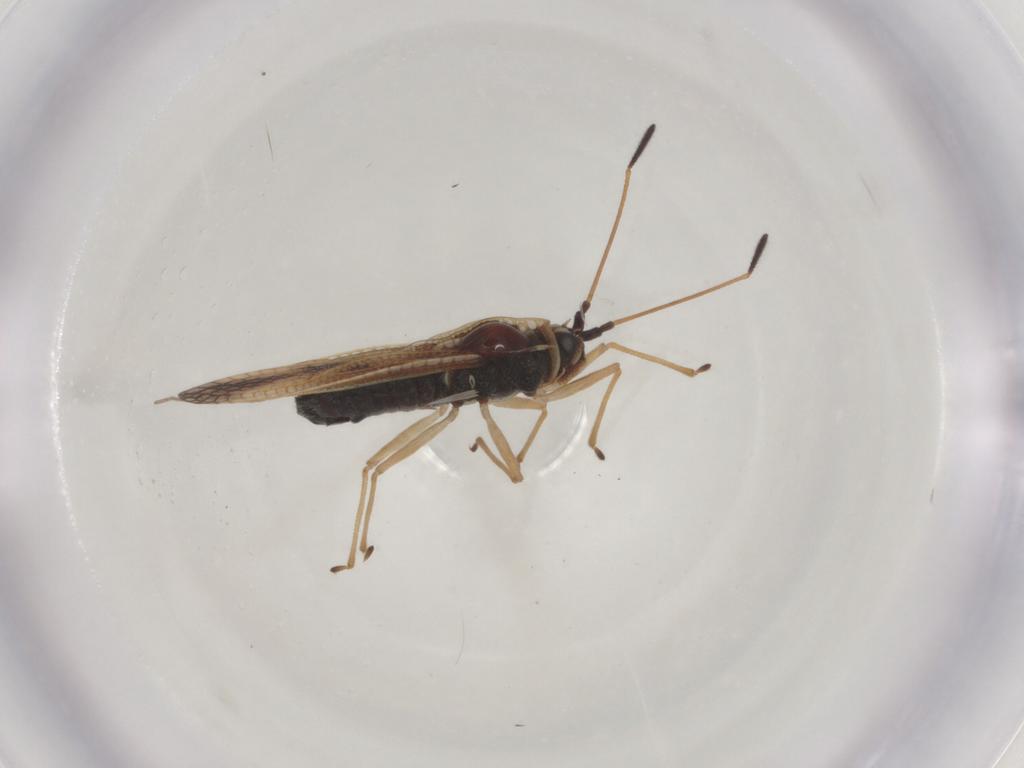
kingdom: Animalia
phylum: Arthropoda
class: Insecta
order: Hemiptera
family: Tingidae
